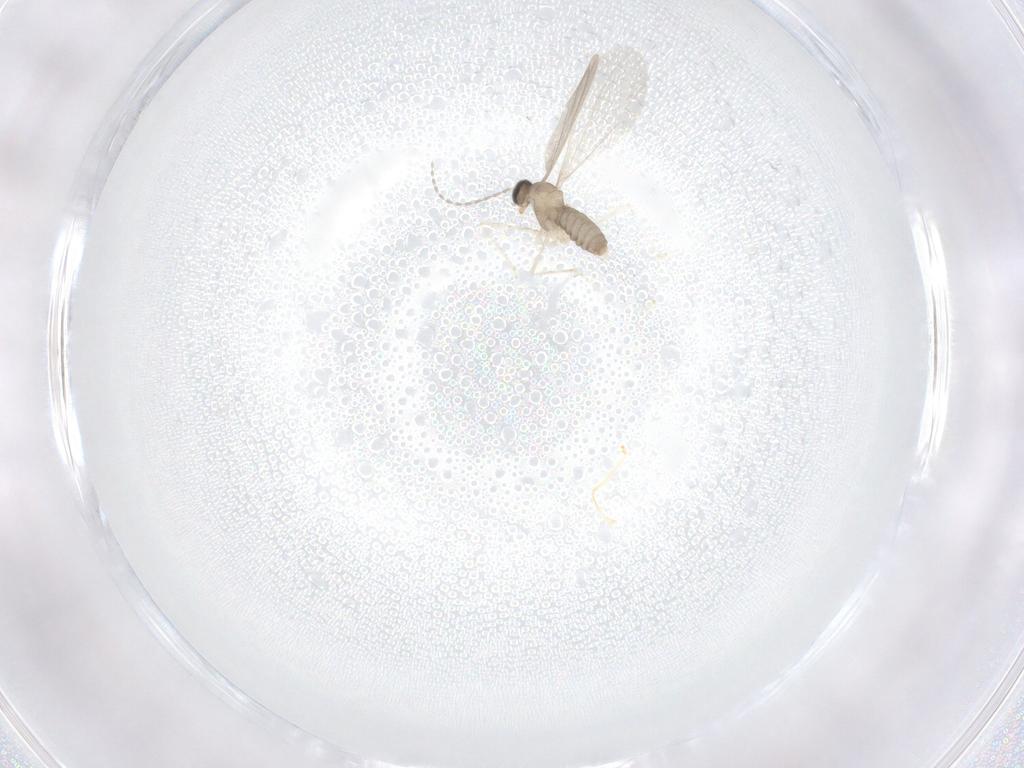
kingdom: Animalia
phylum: Arthropoda
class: Insecta
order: Diptera
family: Cecidomyiidae
